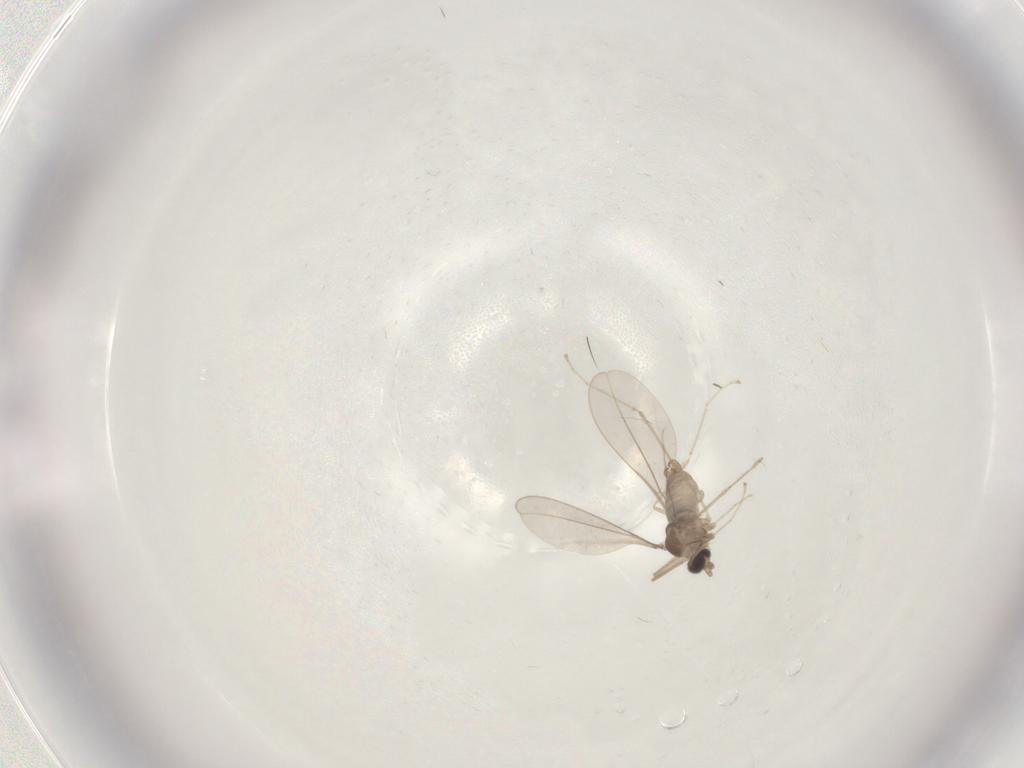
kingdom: Animalia
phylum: Arthropoda
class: Insecta
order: Diptera
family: Cecidomyiidae
